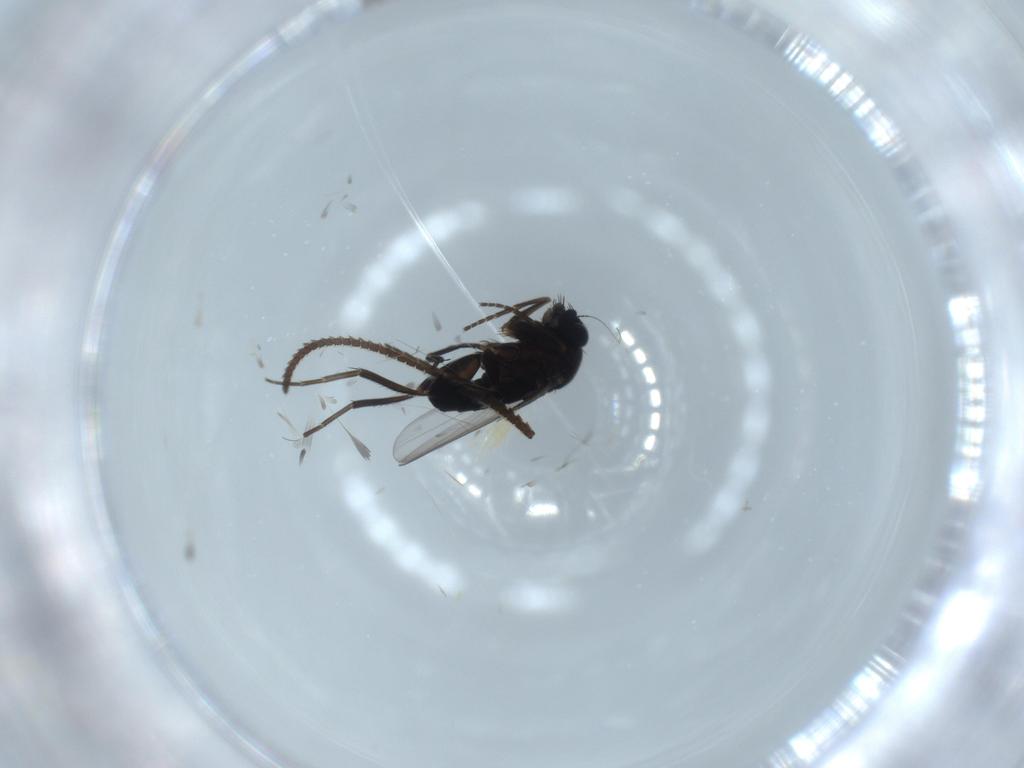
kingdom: Animalia
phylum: Arthropoda
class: Insecta
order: Diptera
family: Phoridae
